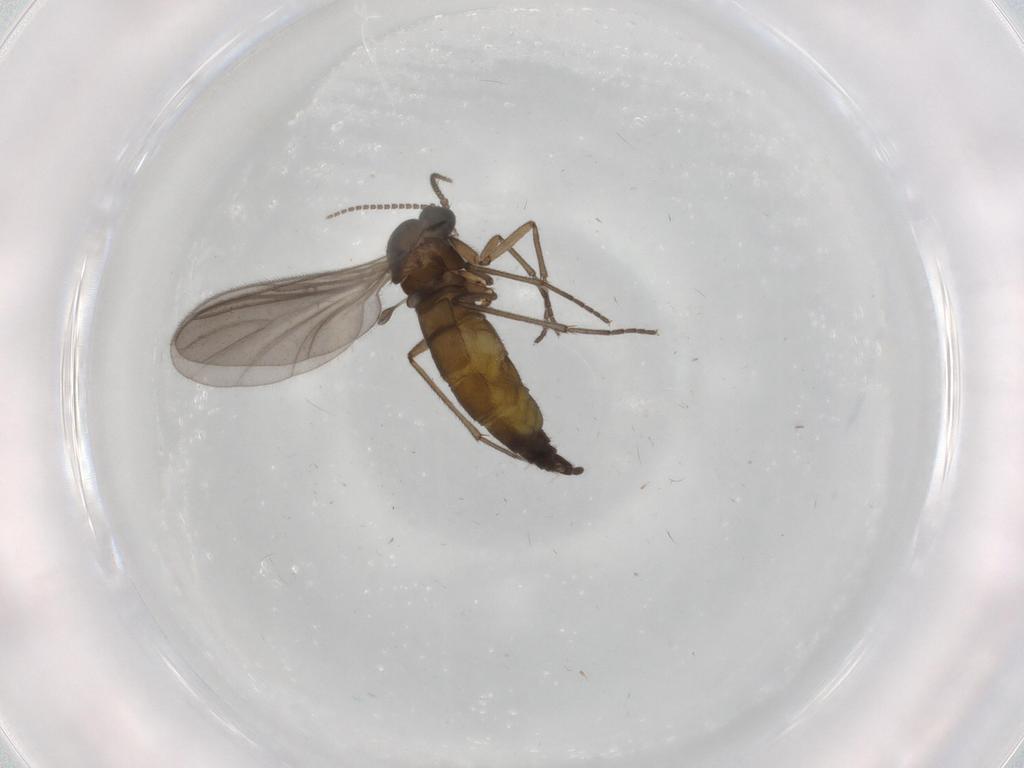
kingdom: Animalia
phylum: Arthropoda
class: Insecta
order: Diptera
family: Sciaridae
